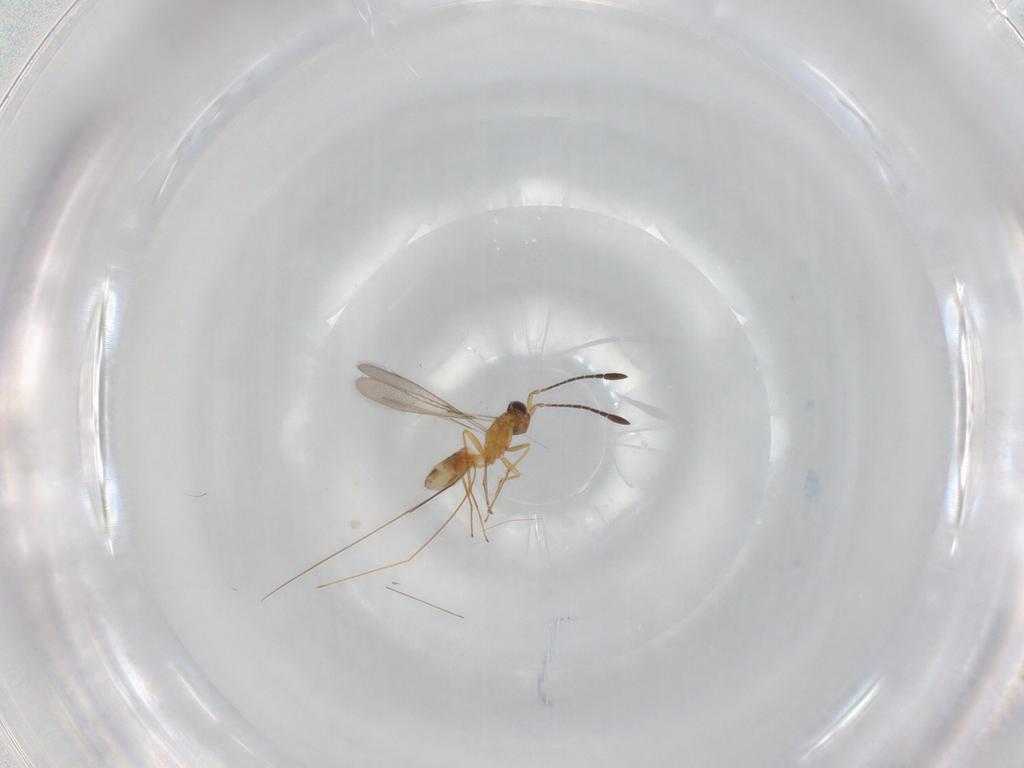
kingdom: Animalia
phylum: Arthropoda
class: Insecta
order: Hymenoptera
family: Mymaridae
